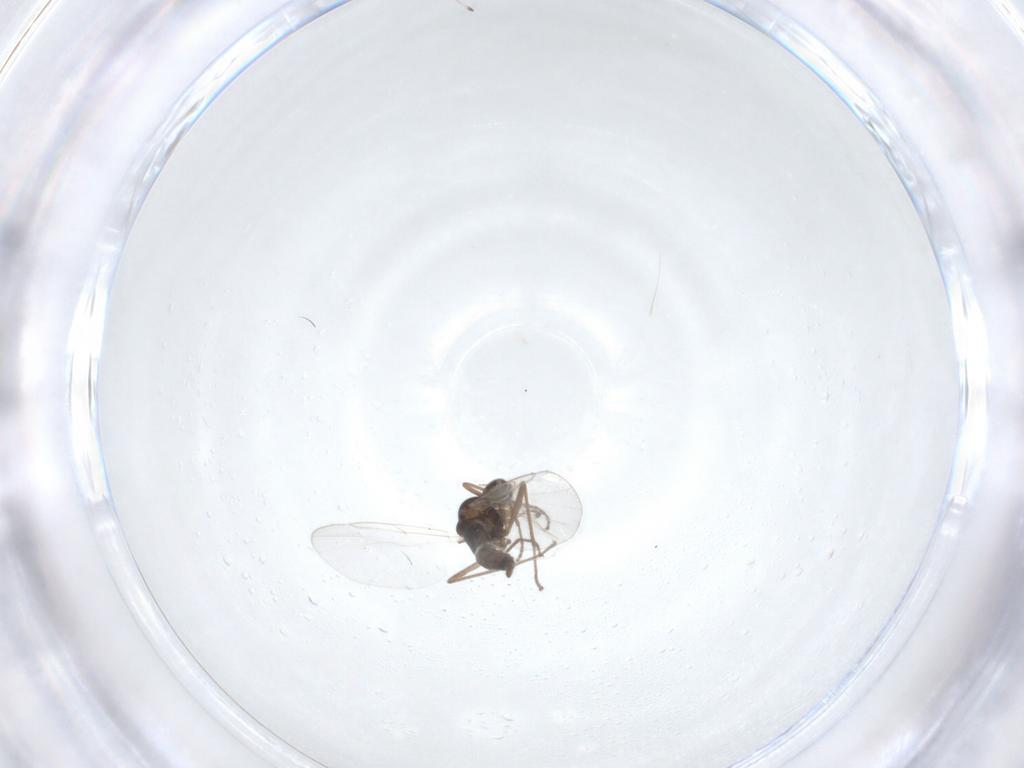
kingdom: Animalia
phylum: Arthropoda
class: Insecta
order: Diptera
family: Cecidomyiidae
